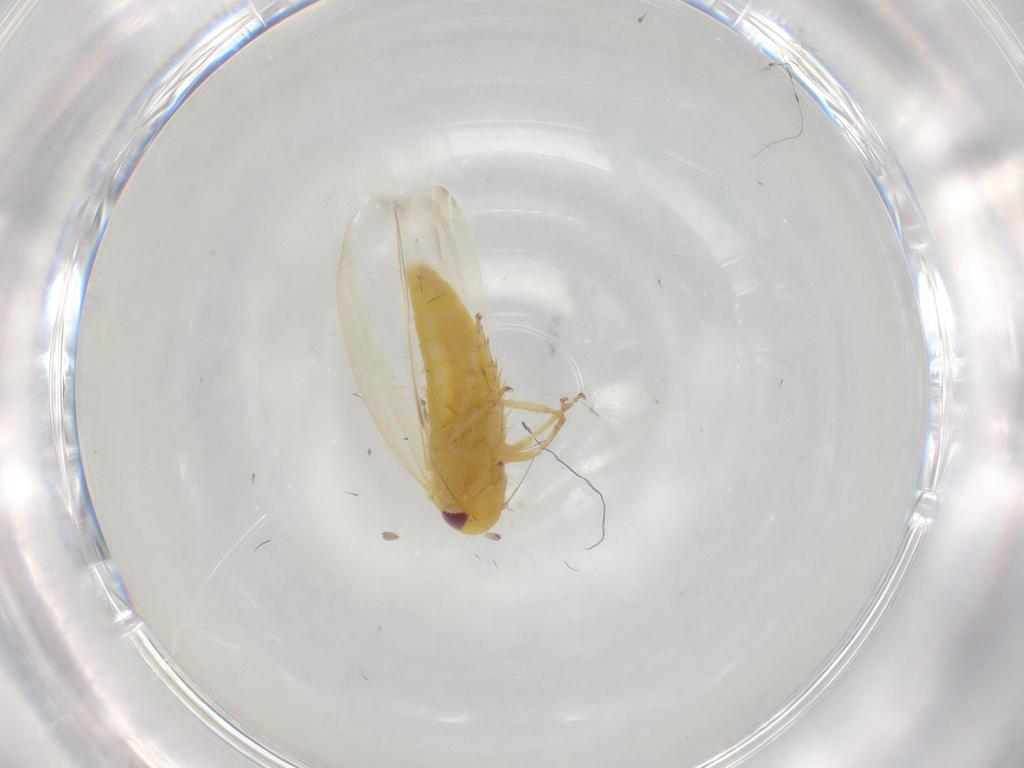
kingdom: Animalia
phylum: Arthropoda
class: Insecta
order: Hemiptera
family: Cicadellidae
